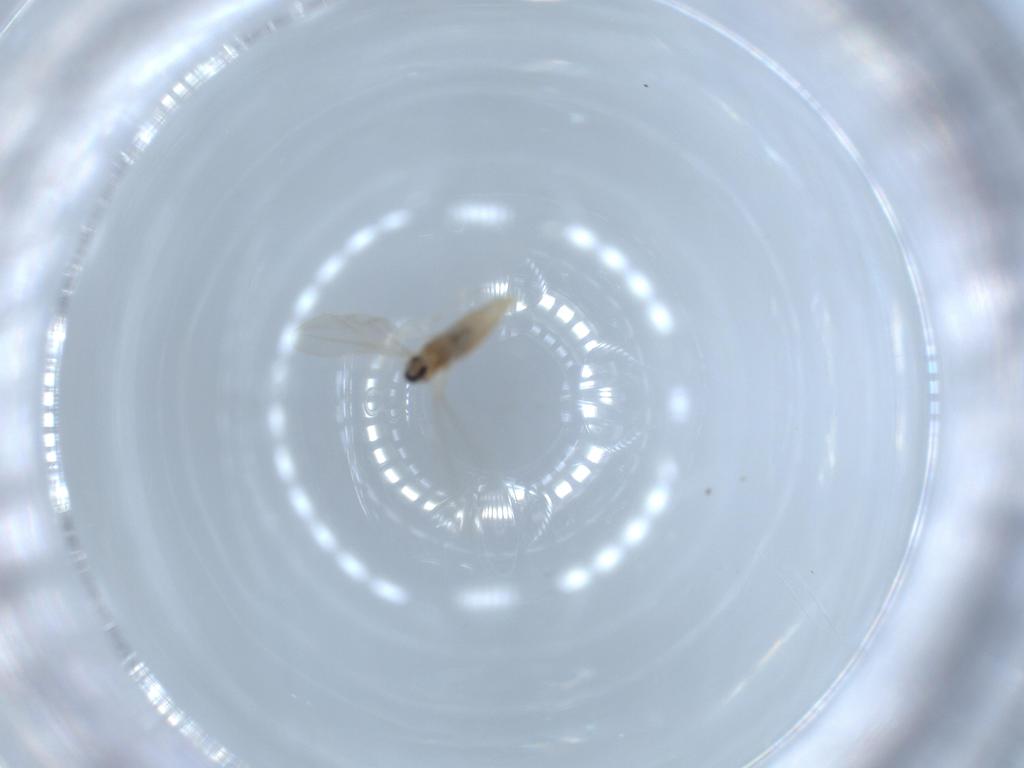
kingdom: Animalia
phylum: Arthropoda
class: Insecta
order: Diptera
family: Cecidomyiidae
